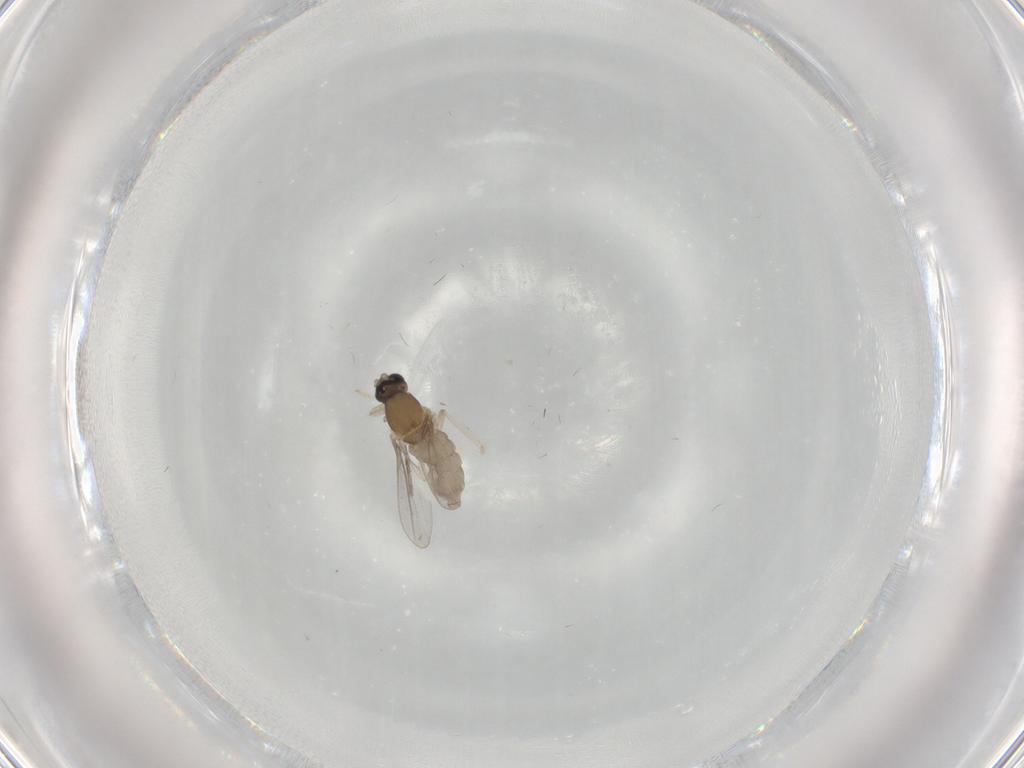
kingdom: Animalia
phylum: Arthropoda
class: Insecta
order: Diptera
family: Cecidomyiidae
